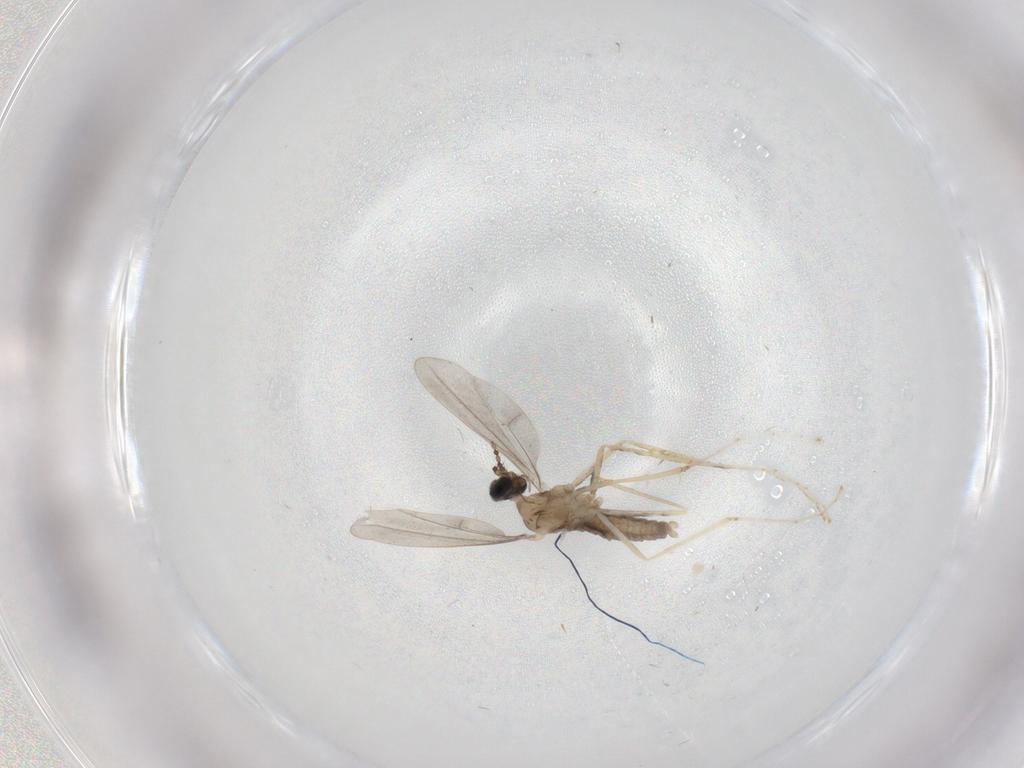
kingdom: Animalia
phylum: Arthropoda
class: Insecta
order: Diptera
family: Cecidomyiidae
